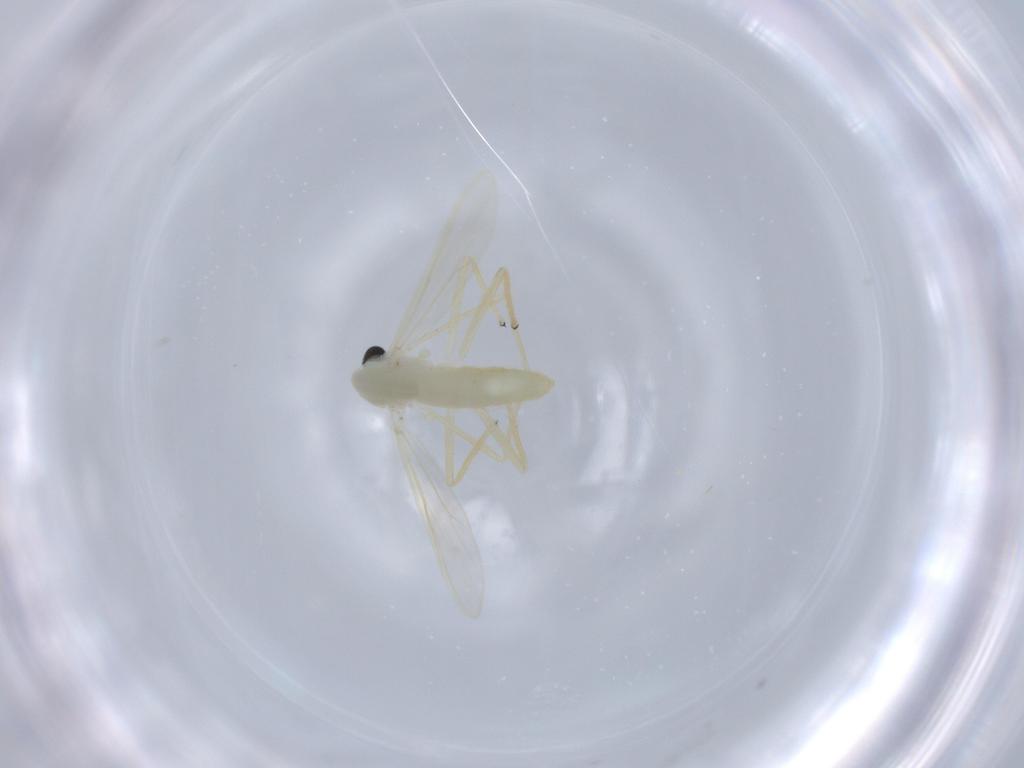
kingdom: Animalia
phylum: Arthropoda
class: Insecta
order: Diptera
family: Chironomidae
